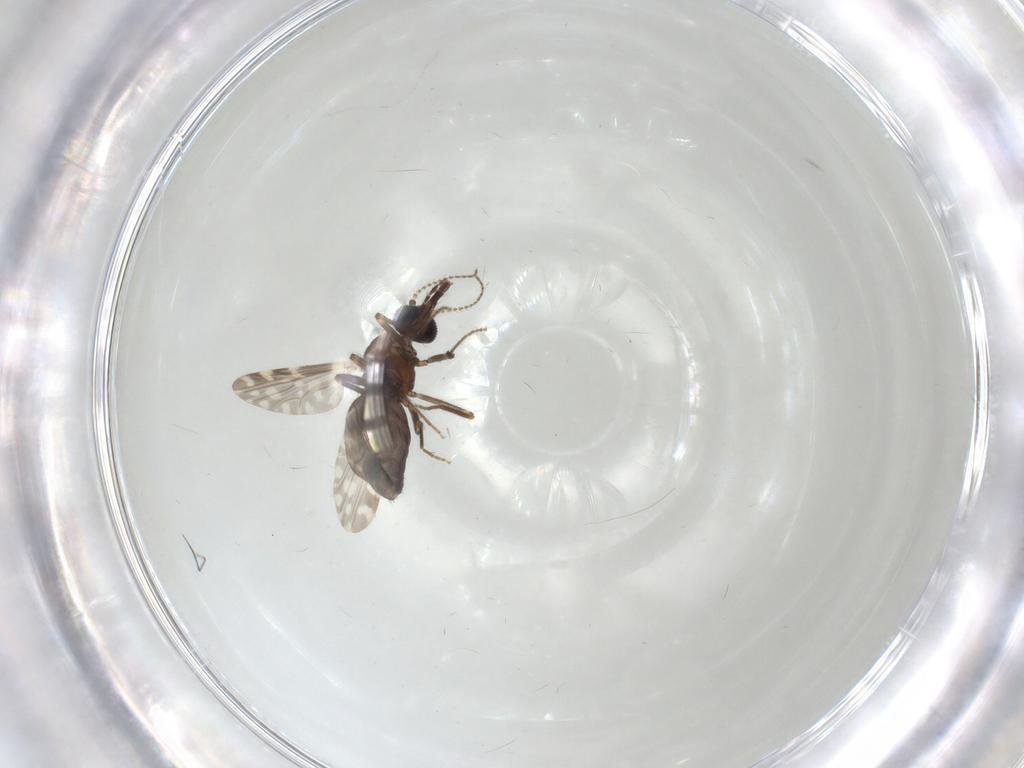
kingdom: Animalia
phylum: Arthropoda
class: Insecta
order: Diptera
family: Ceratopogonidae
